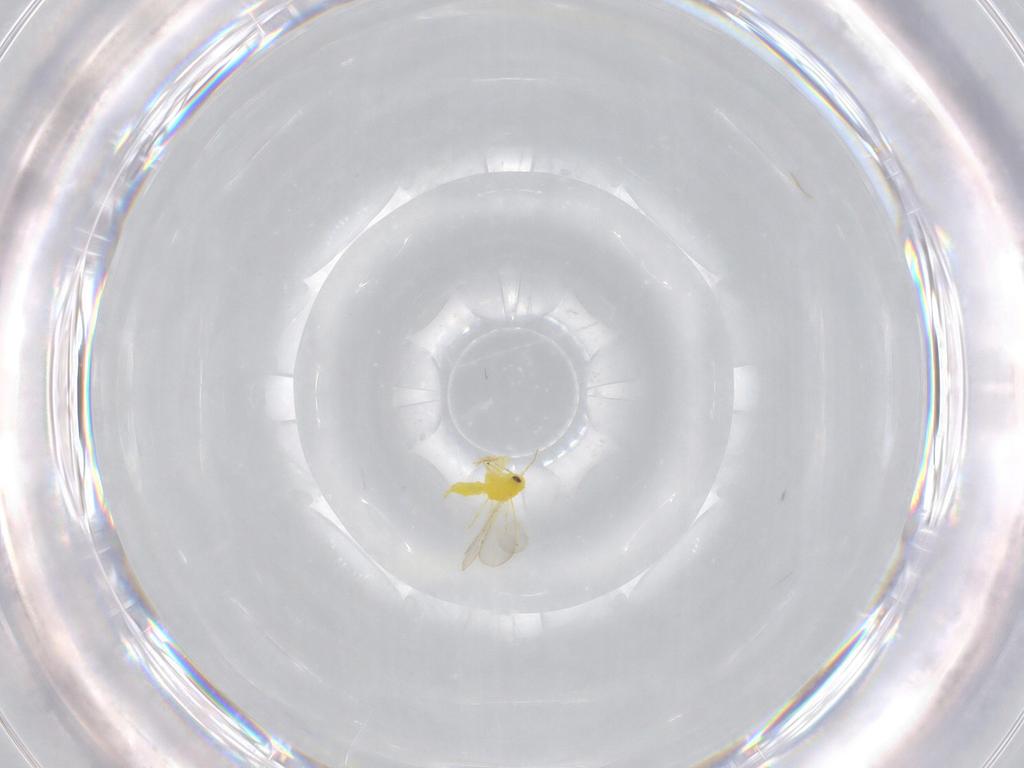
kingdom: Animalia
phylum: Arthropoda
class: Insecta
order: Hemiptera
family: Aleyrodidae
